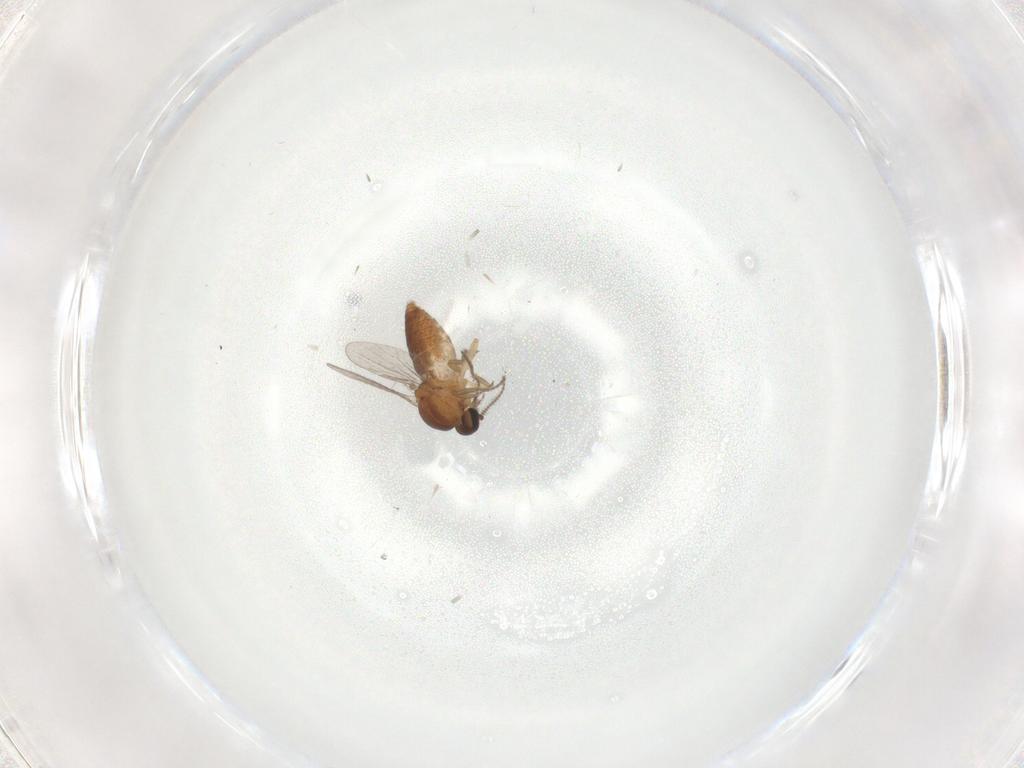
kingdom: Animalia
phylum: Arthropoda
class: Insecta
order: Diptera
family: Ceratopogonidae
